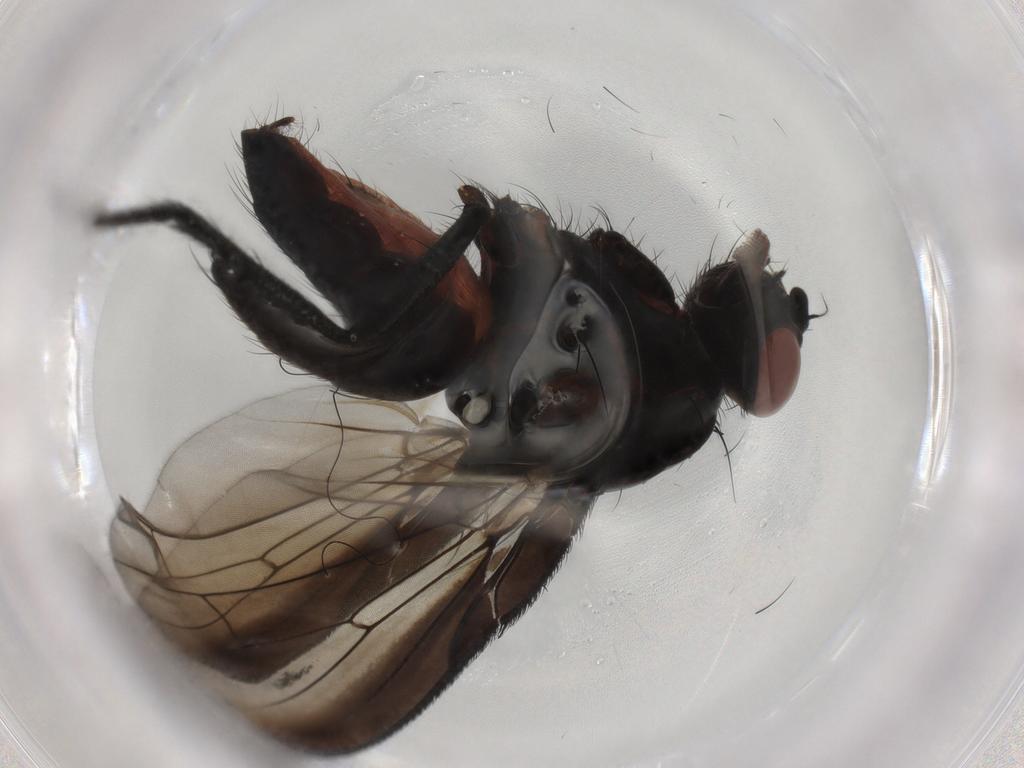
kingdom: Animalia
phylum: Arthropoda
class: Insecta
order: Diptera
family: Anthomyiidae
